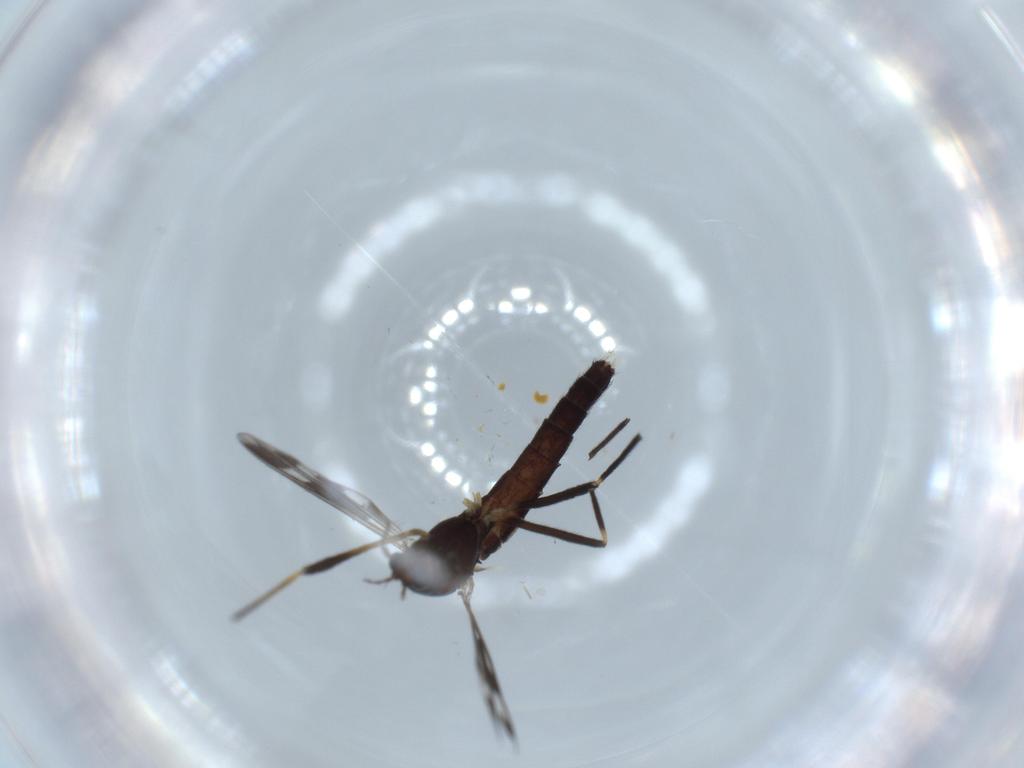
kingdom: Animalia
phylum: Arthropoda
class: Insecta
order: Diptera
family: Chironomidae
